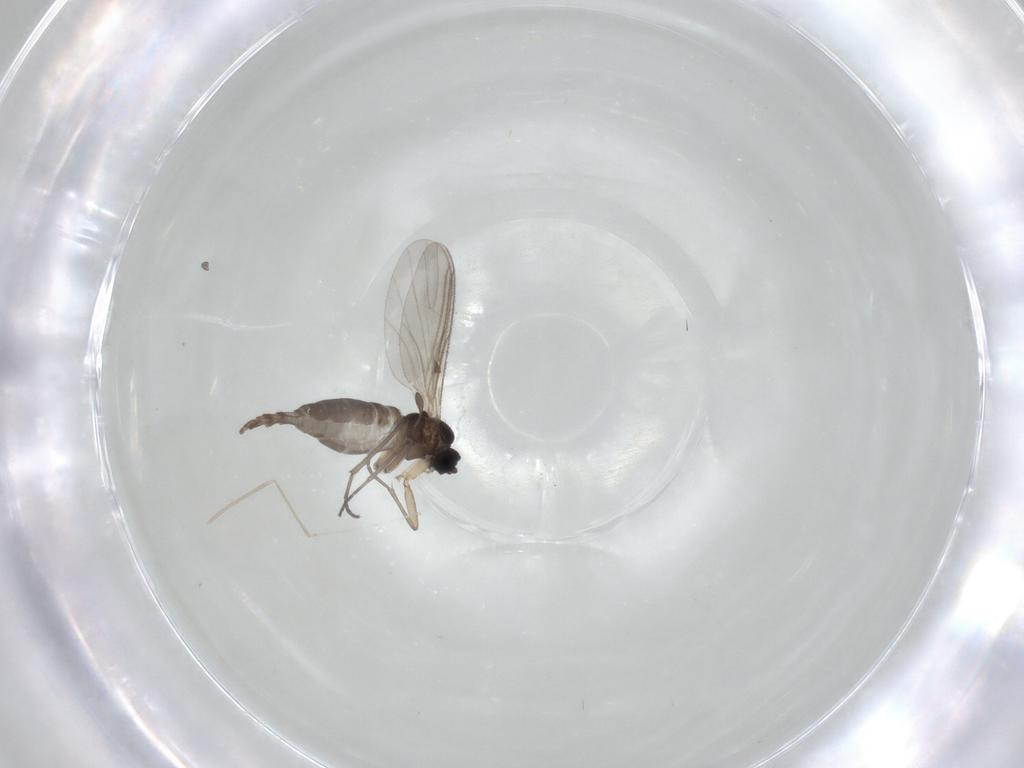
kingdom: Animalia
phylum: Arthropoda
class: Insecta
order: Diptera
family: Sciaridae
